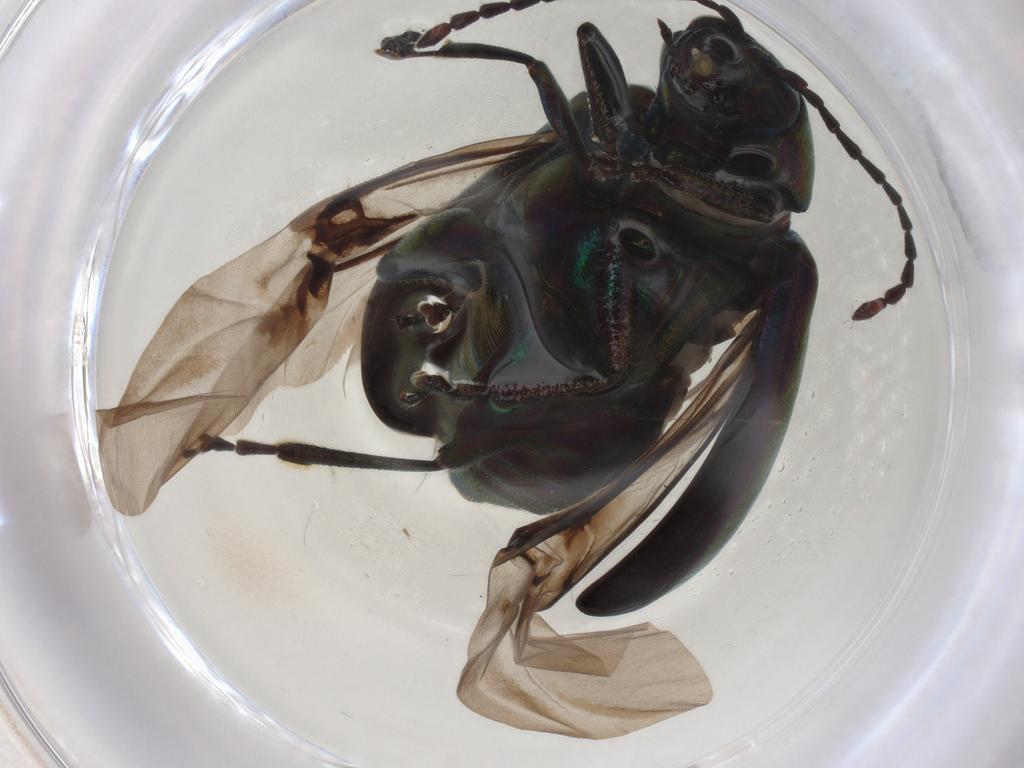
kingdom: Animalia
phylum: Arthropoda
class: Insecta
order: Coleoptera
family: Chrysomelidae
